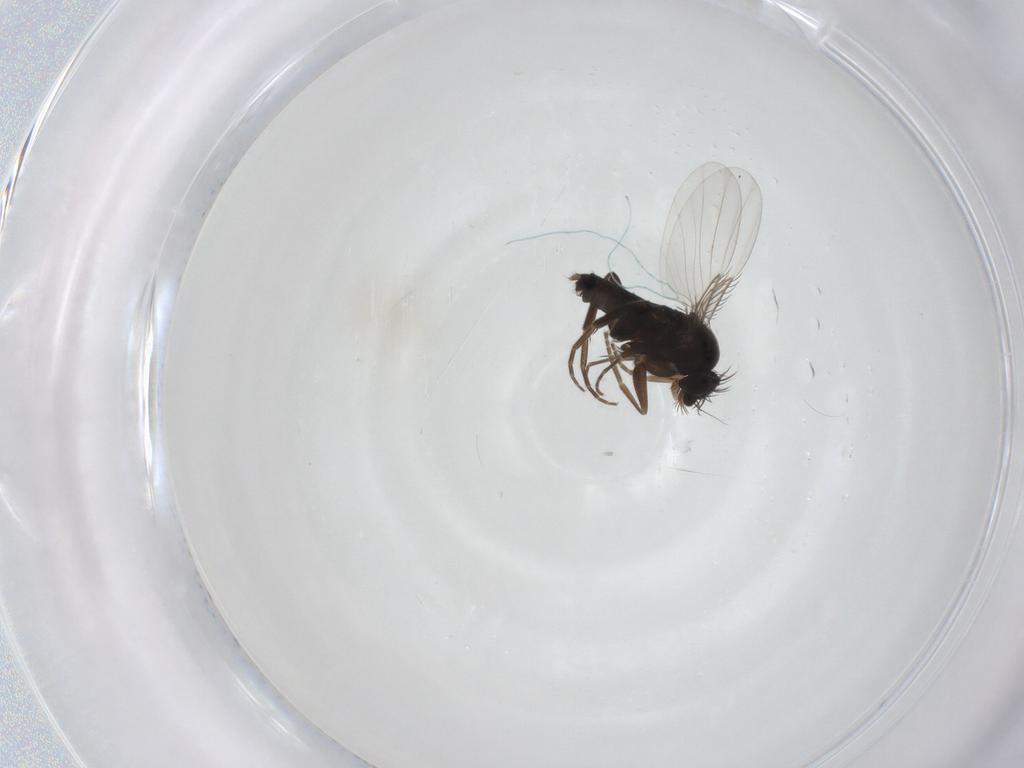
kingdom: Animalia
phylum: Arthropoda
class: Insecta
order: Diptera
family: Phoridae
